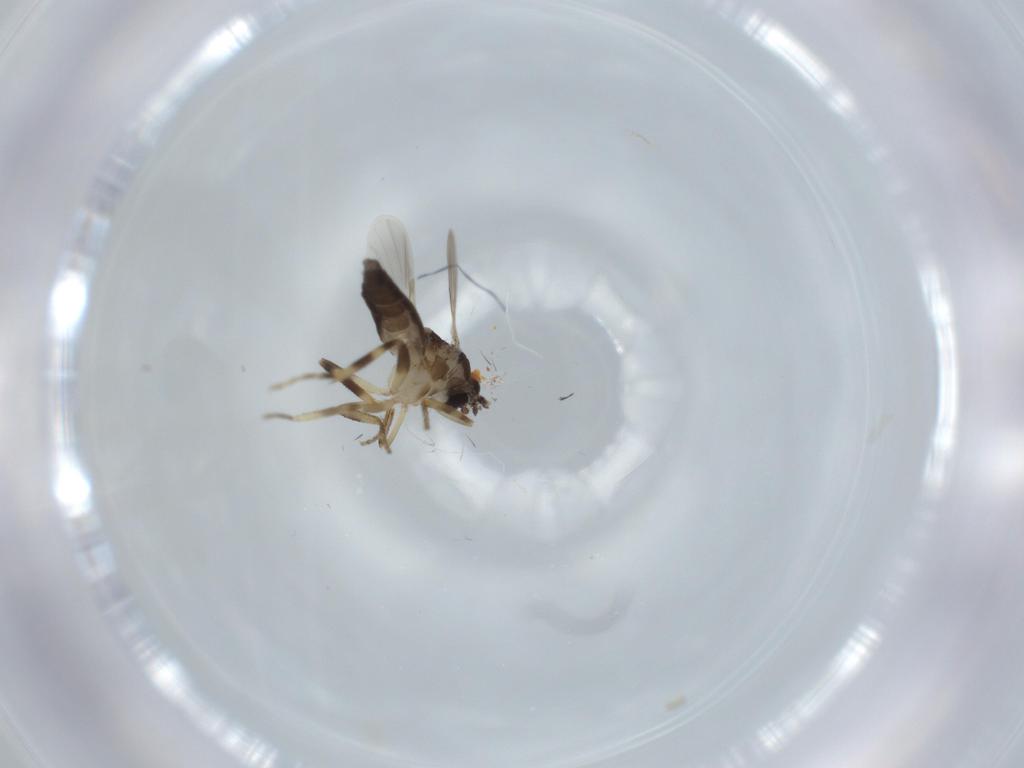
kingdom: Animalia
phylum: Arthropoda
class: Insecta
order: Diptera
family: Ceratopogonidae
